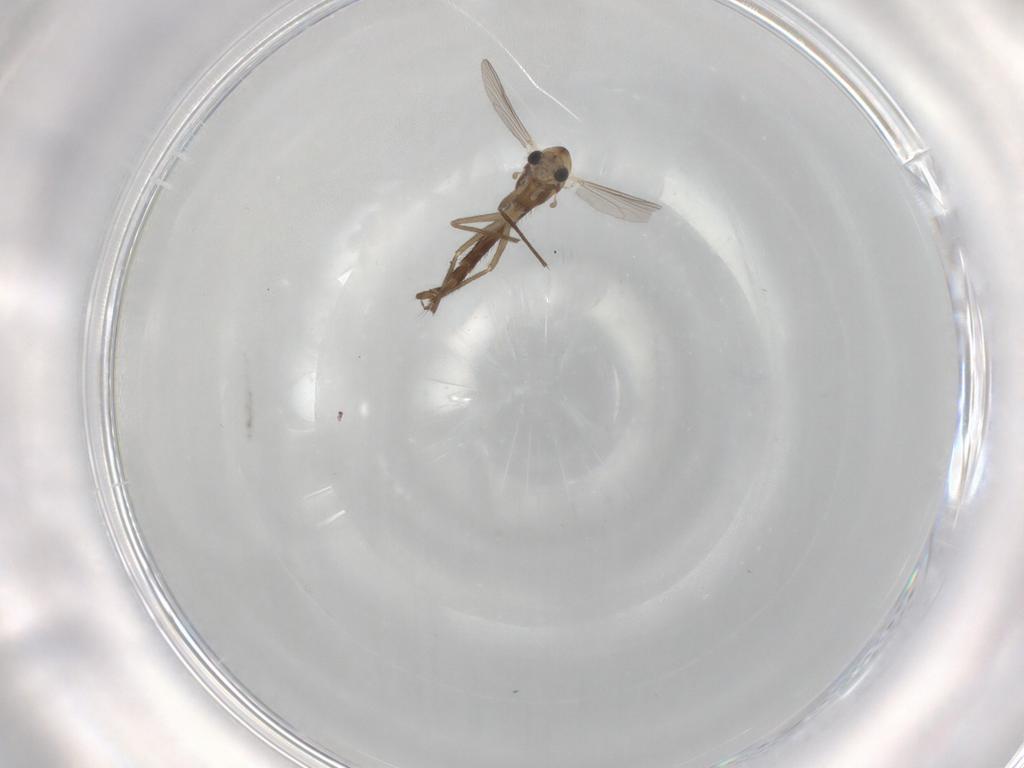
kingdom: Animalia
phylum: Arthropoda
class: Insecta
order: Diptera
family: Chironomidae
